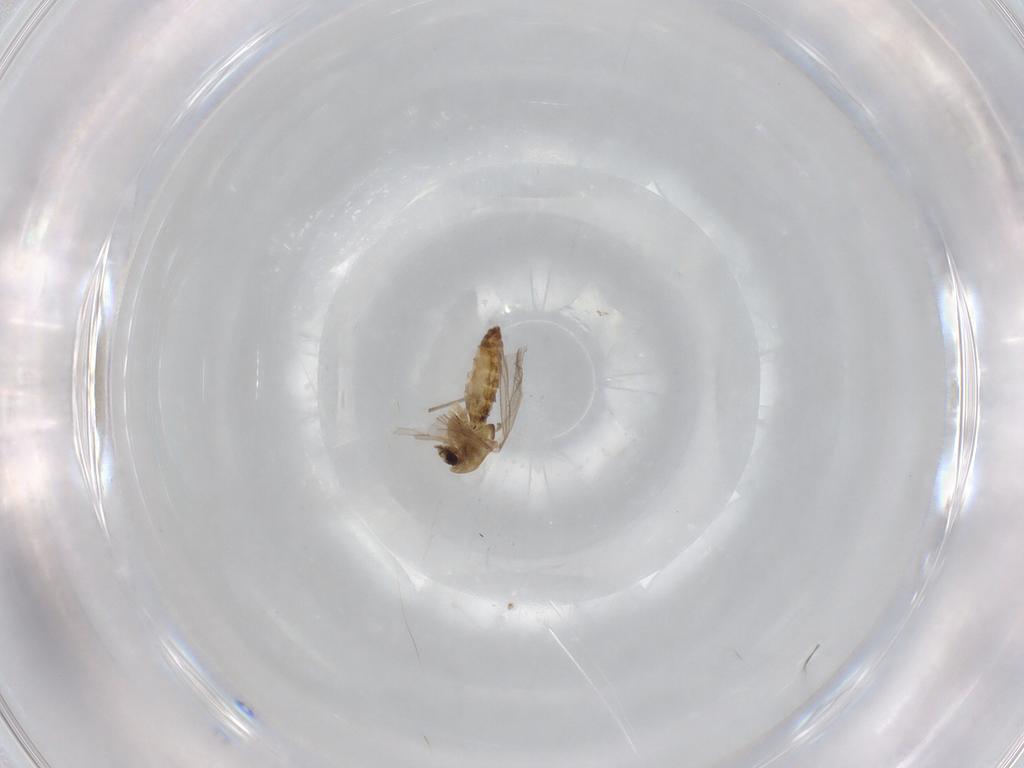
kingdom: Animalia
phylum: Arthropoda
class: Insecta
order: Diptera
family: Chironomidae
